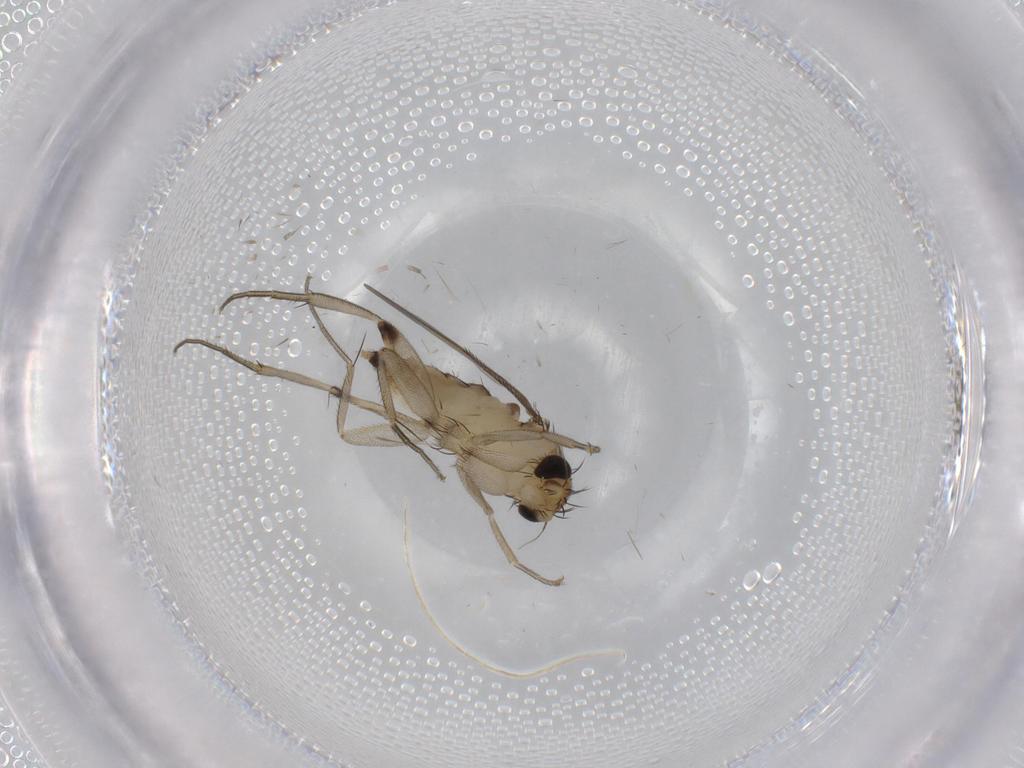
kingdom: Animalia
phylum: Arthropoda
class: Insecta
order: Diptera
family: Phoridae
